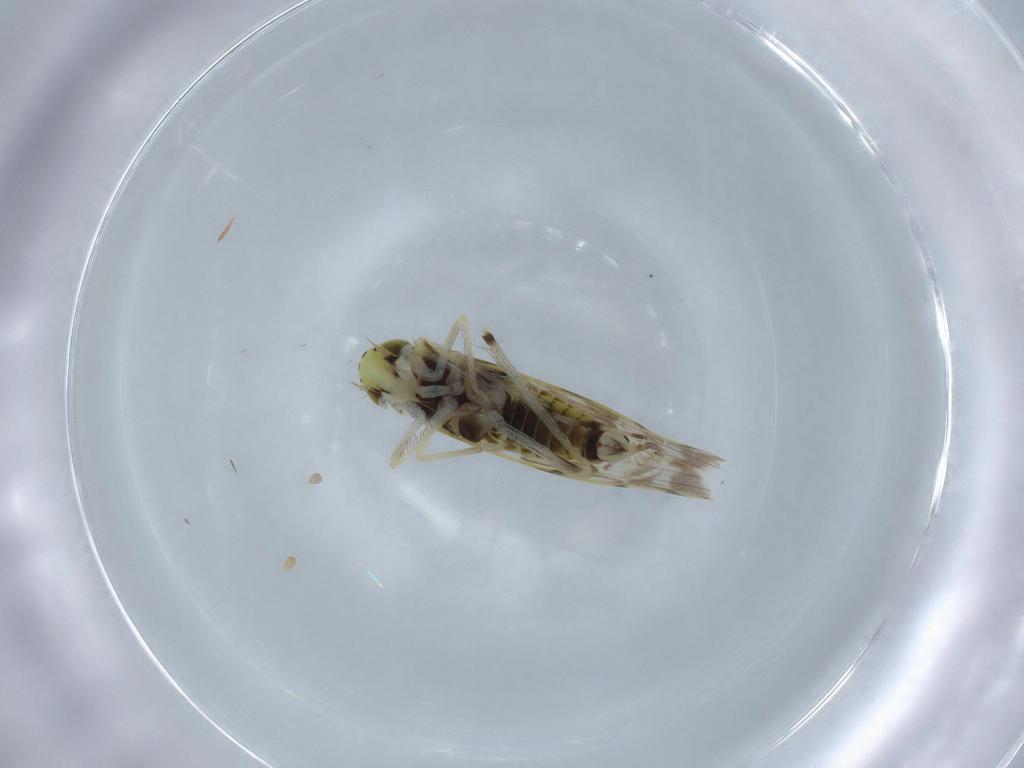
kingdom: Animalia
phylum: Arthropoda
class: Insecta
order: Hemiptera
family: Cicadellidae
